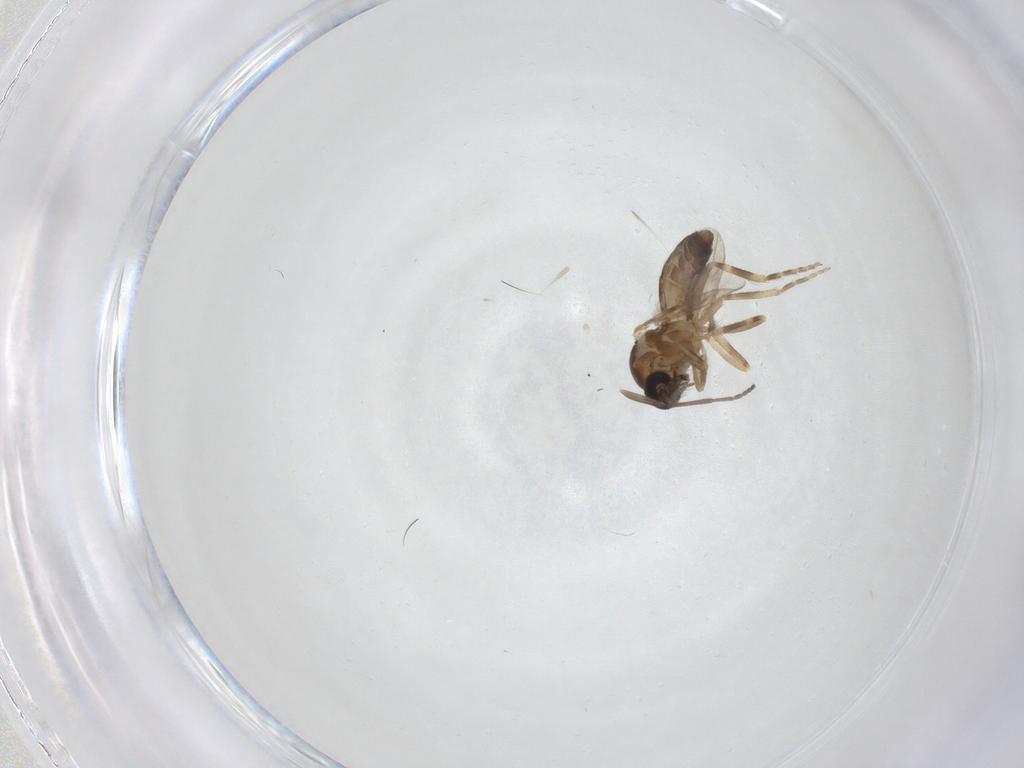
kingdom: Animalia
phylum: Arthropoda
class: Insecta
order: Diptera
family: Ceratopogonidae
